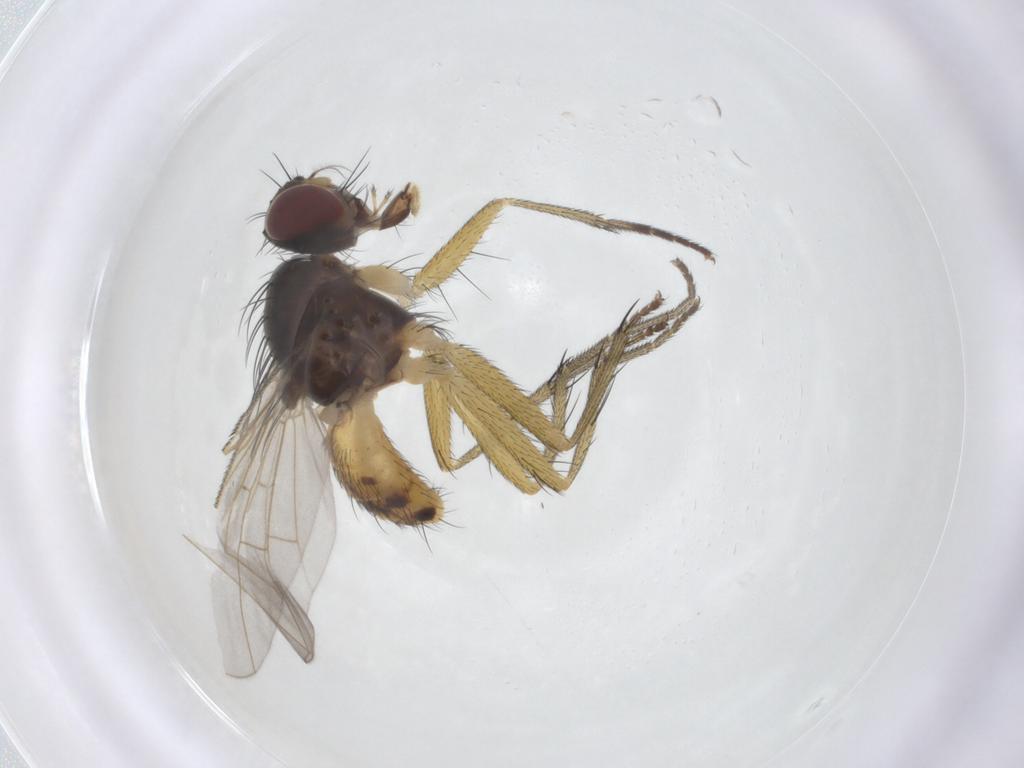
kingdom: Animalia
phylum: Arthropoda
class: Insecta
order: Diptera
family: Muscidae
